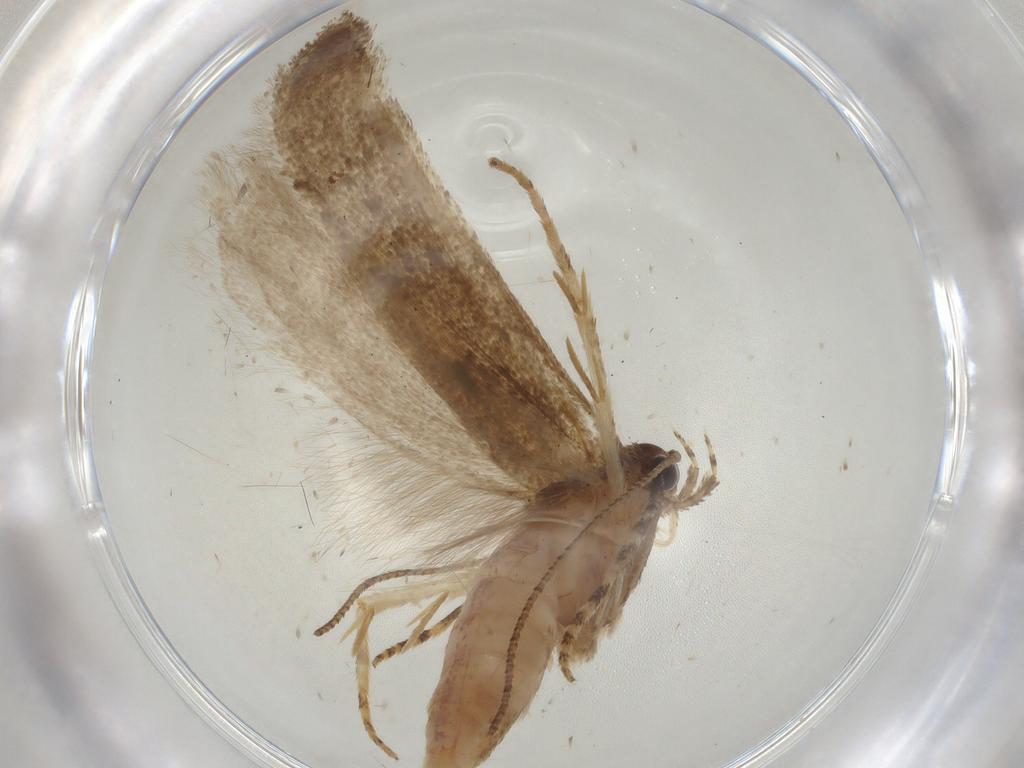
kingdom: Animalia
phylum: Arthropoda
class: Insecta
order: Lepidoptera
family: Gelechiidae
